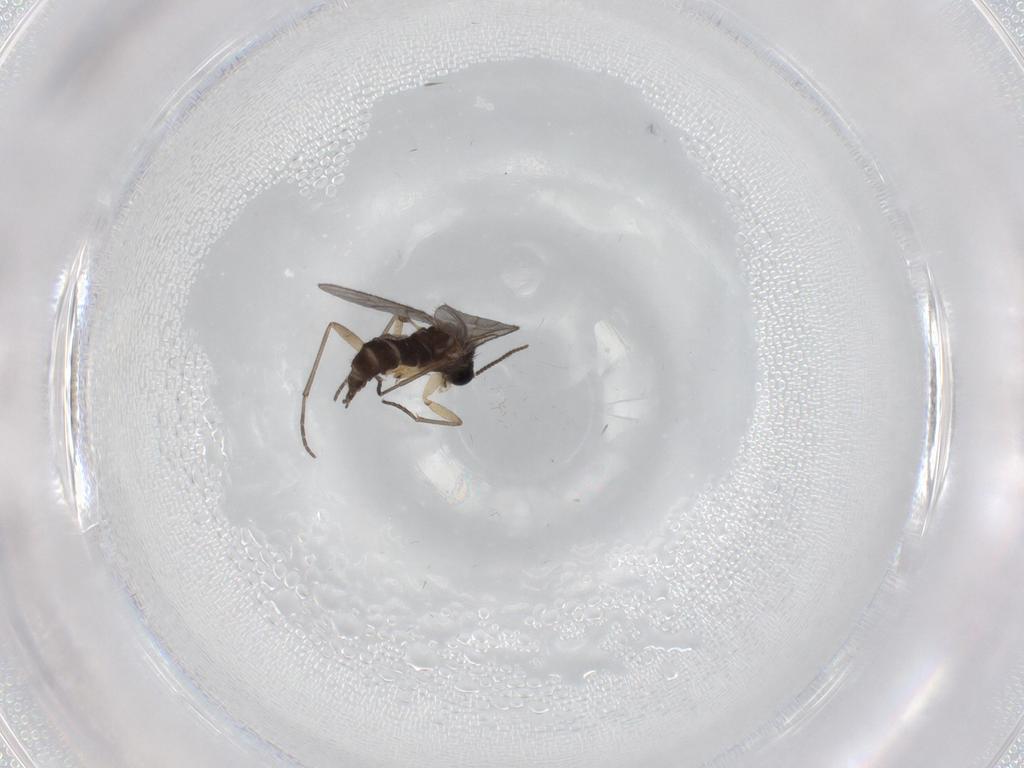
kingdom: Animalia
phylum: Arthropoda
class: Insecta
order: Diptera
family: Sciaridae
